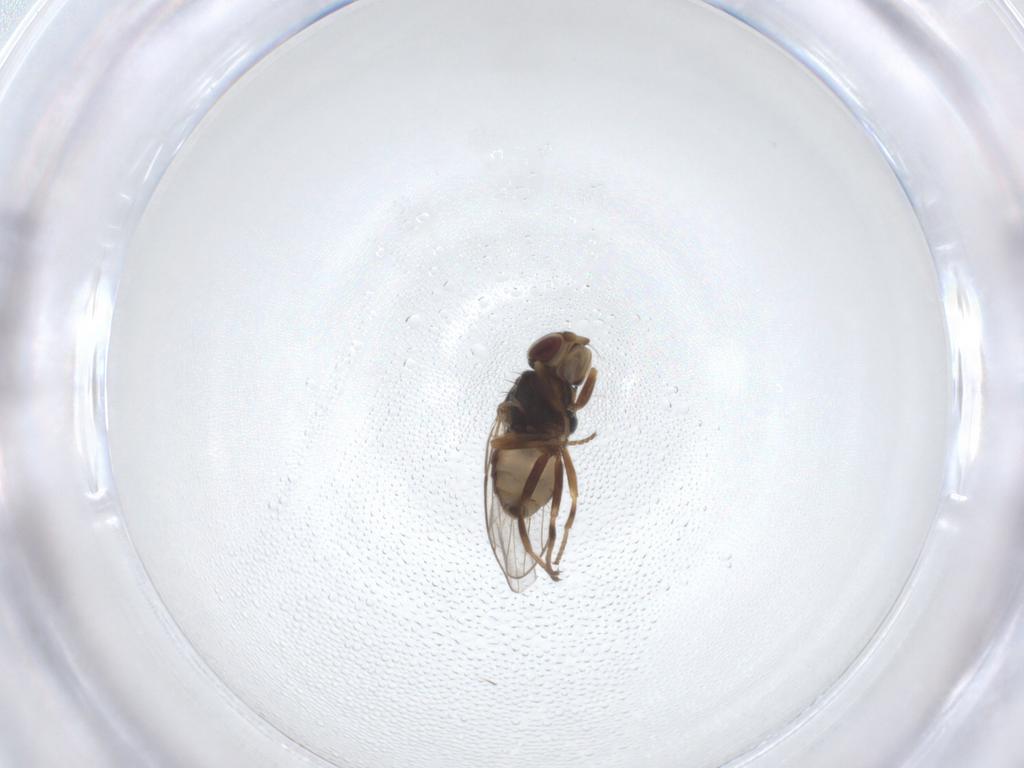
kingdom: Animalia
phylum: Arthropoda
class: Insecta
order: Diptera
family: Chloropidae
